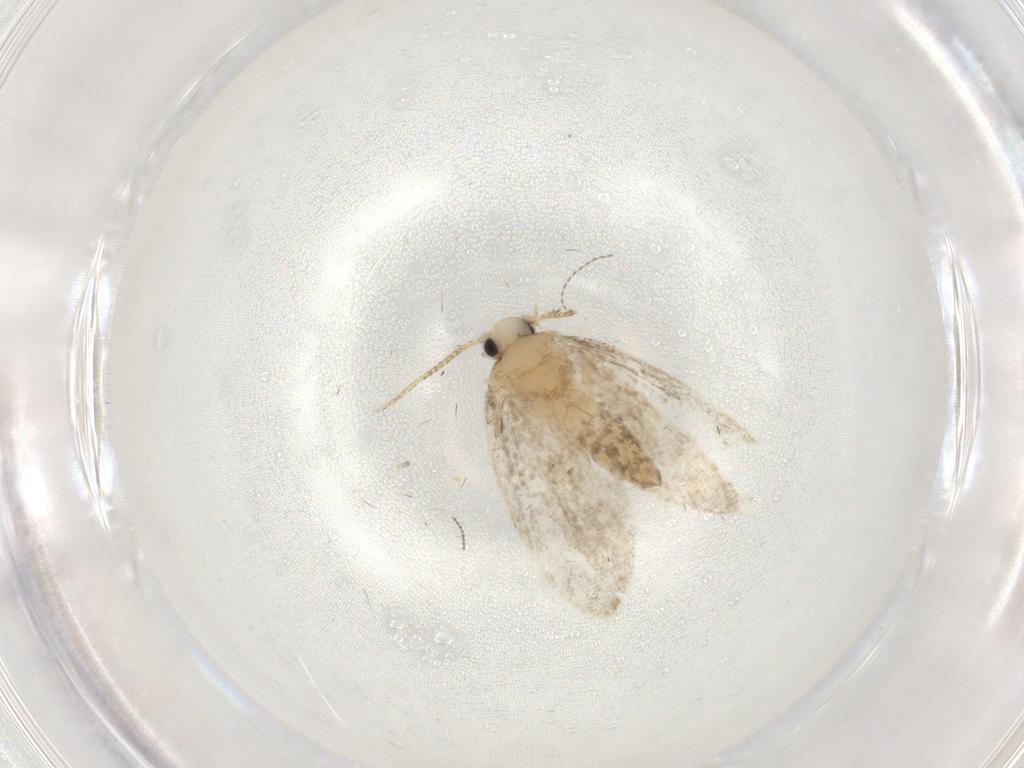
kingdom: Animalia
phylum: Arthropoda
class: Insecta
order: Lepidoptera
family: Psychidae
